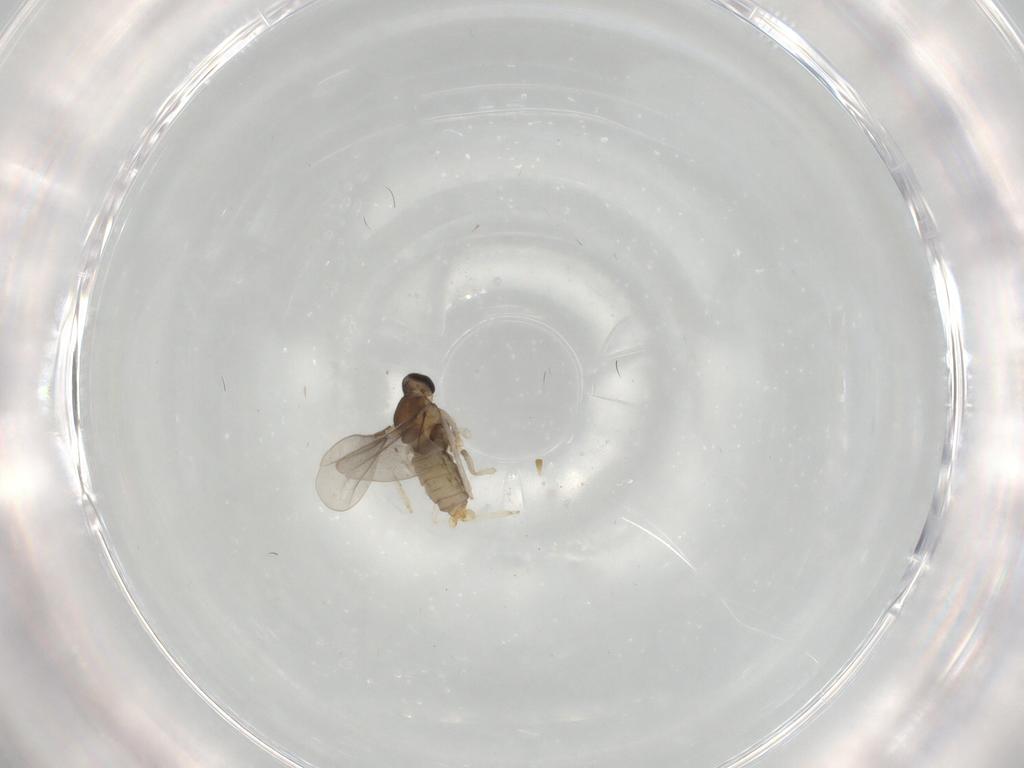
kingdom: Animalia
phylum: Arthropoda
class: Insecta
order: Diptera
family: Cecidomyiidae
